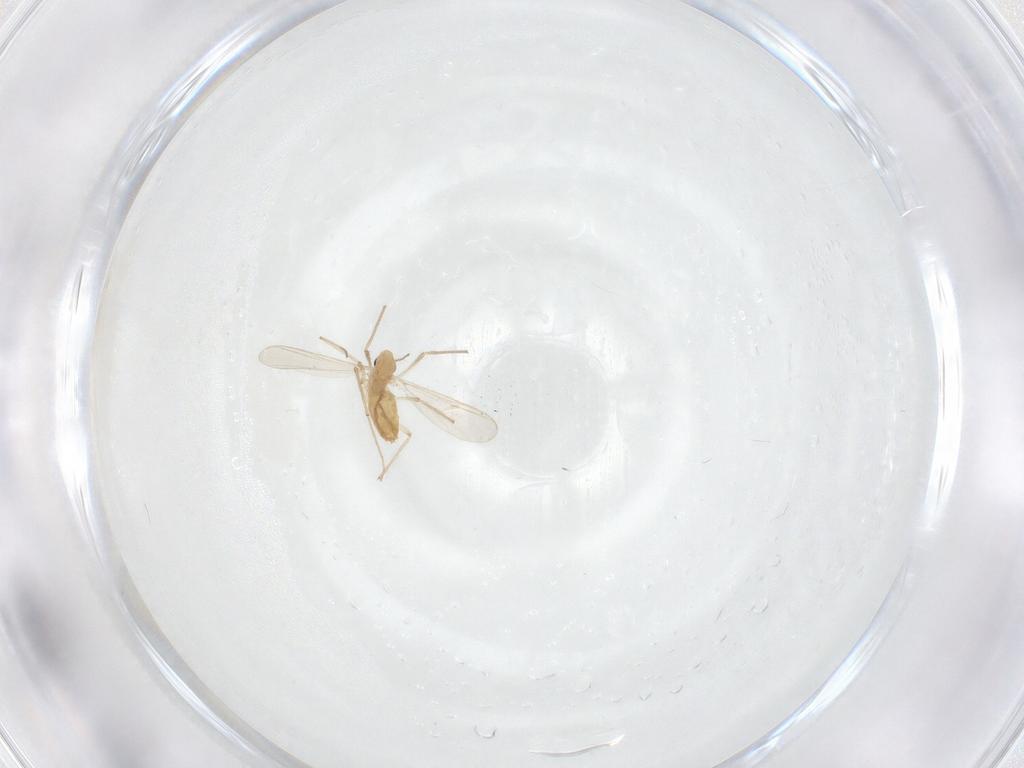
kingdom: Animalia
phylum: Arthropoda
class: Insecta
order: Diptera
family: Chironomidae
